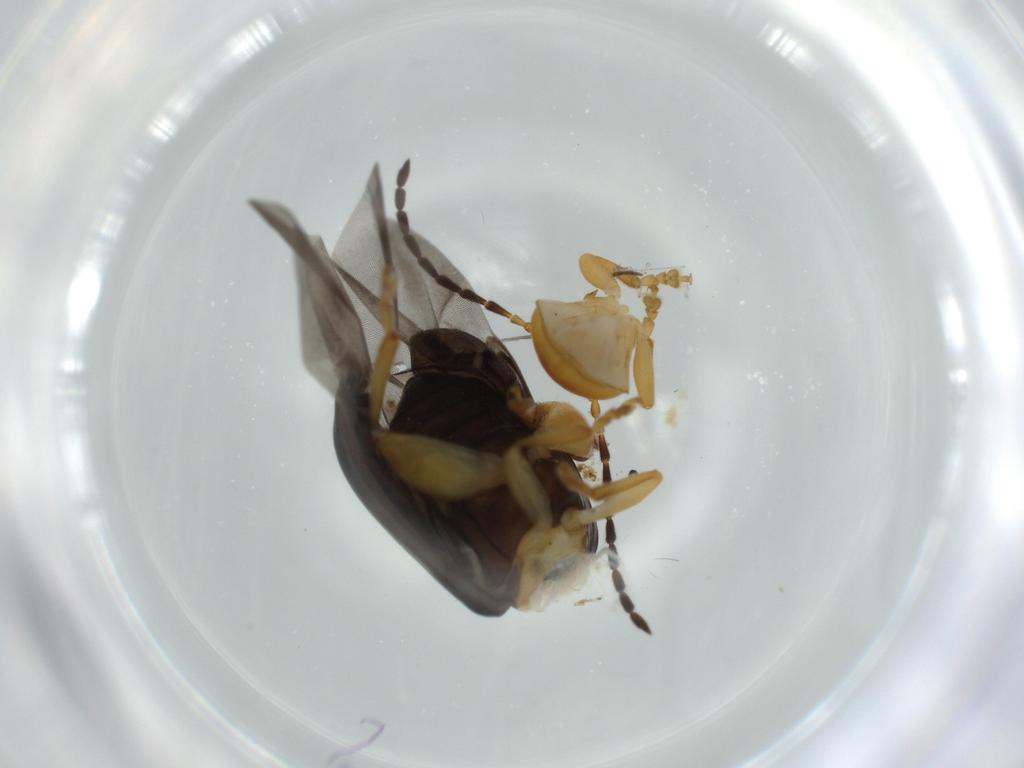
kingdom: Animalia
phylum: Arthropoda
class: Insecta
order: Coleoptera
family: Chrysomelidae
